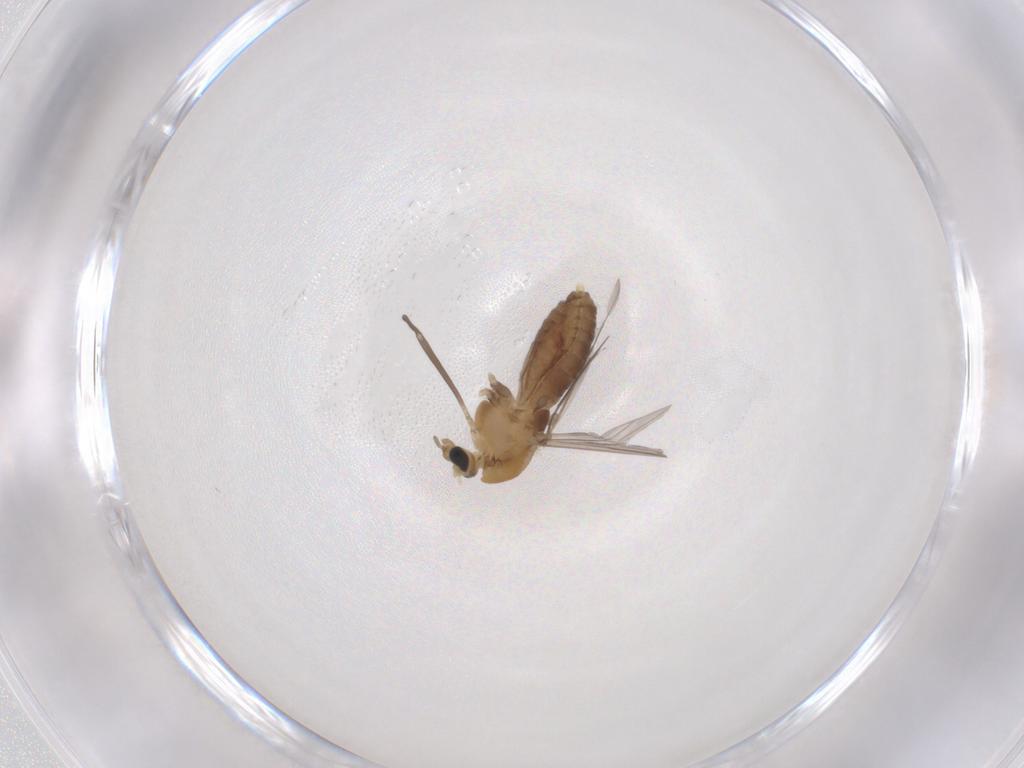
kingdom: Animalia
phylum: Arthropoda
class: Insecta
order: Diptera
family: Chironomidae
